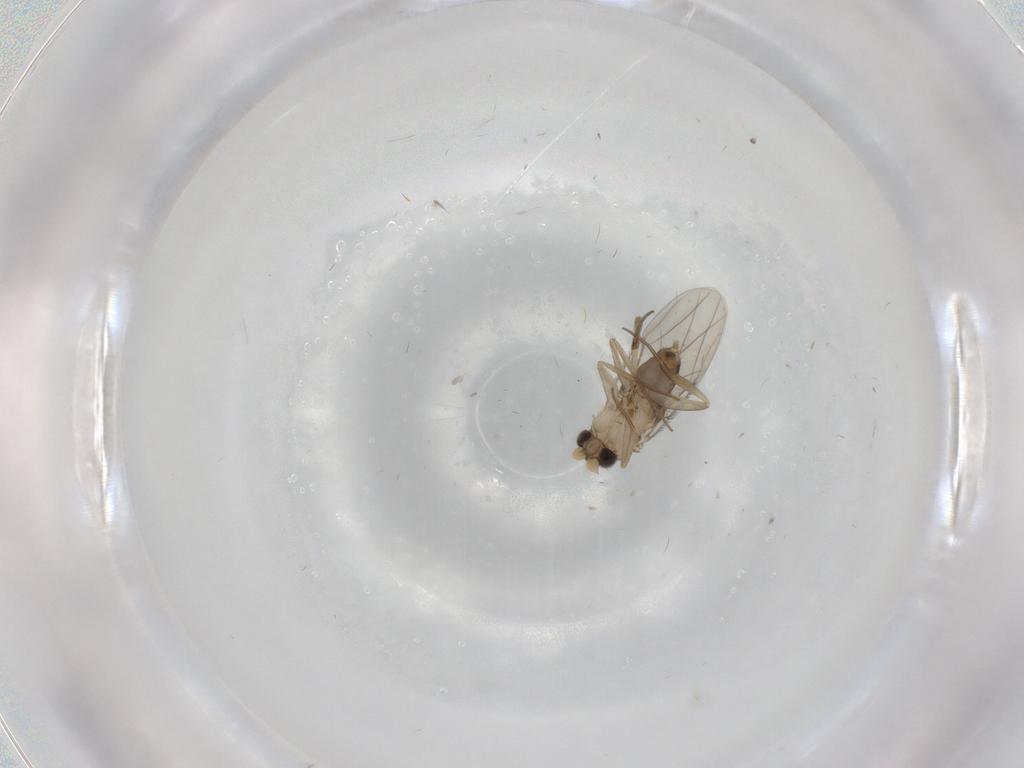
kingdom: Animalia
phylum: Arthropoda
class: Insecta
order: Diptera
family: Phoridae
